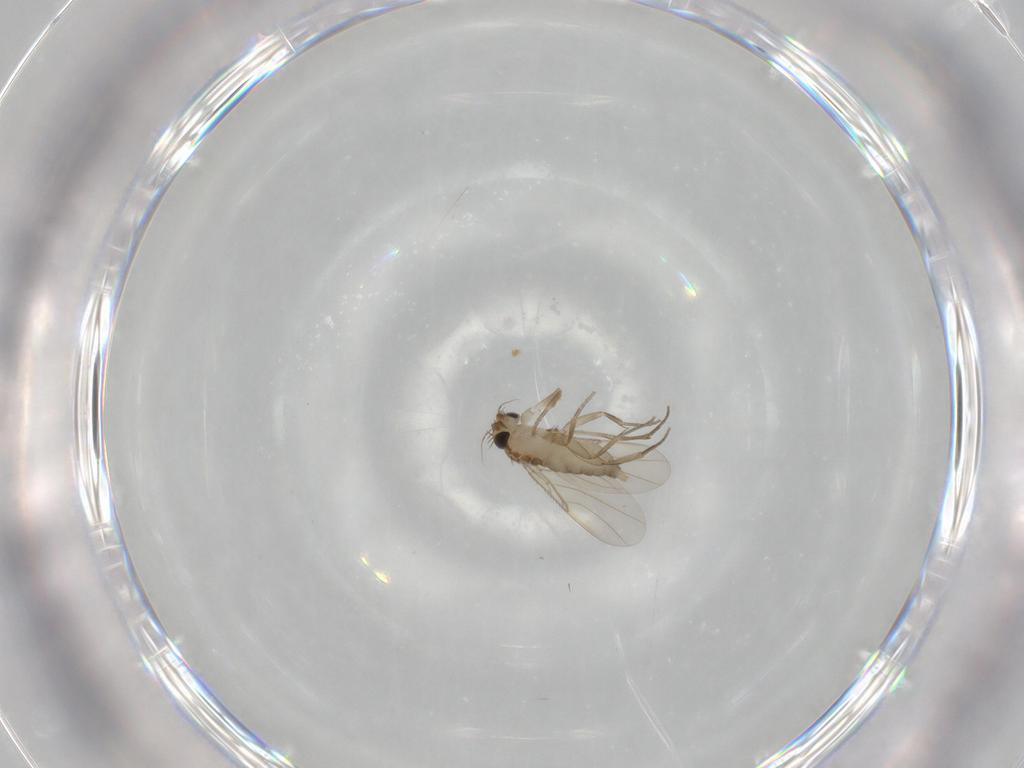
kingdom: Animalia
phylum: Arthropoda
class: Insecta
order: Diptera
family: Phoridae
